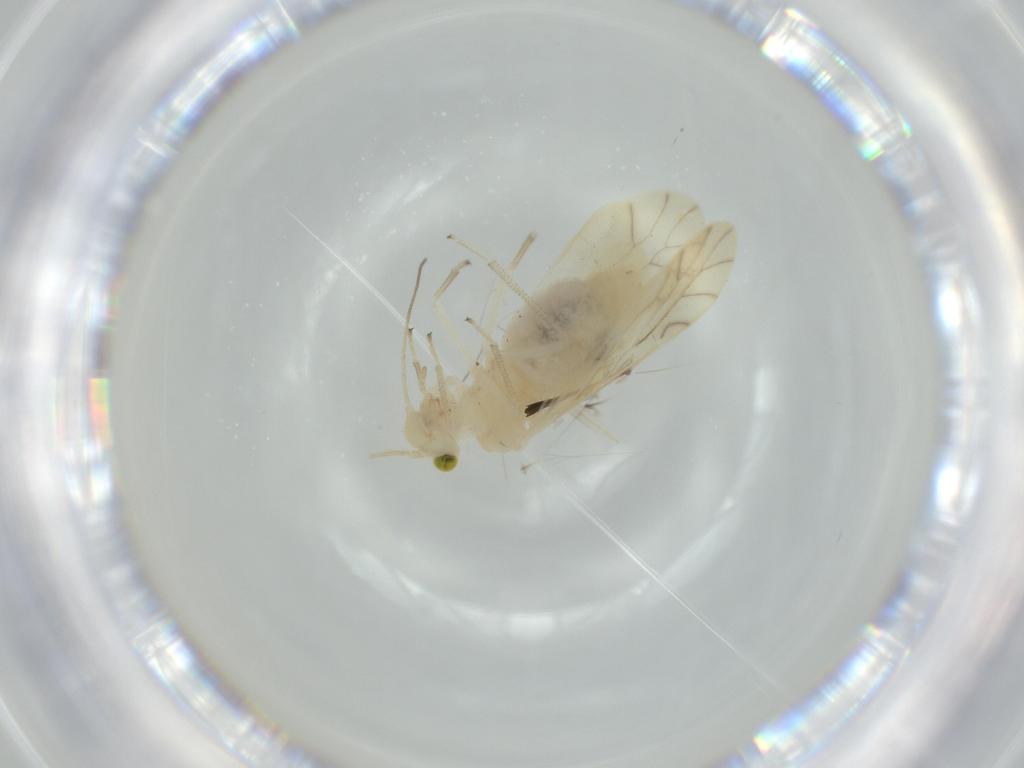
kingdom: Animalia
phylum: Arthropoda
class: Insecta
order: Psocodea
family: Caeciliusidae
